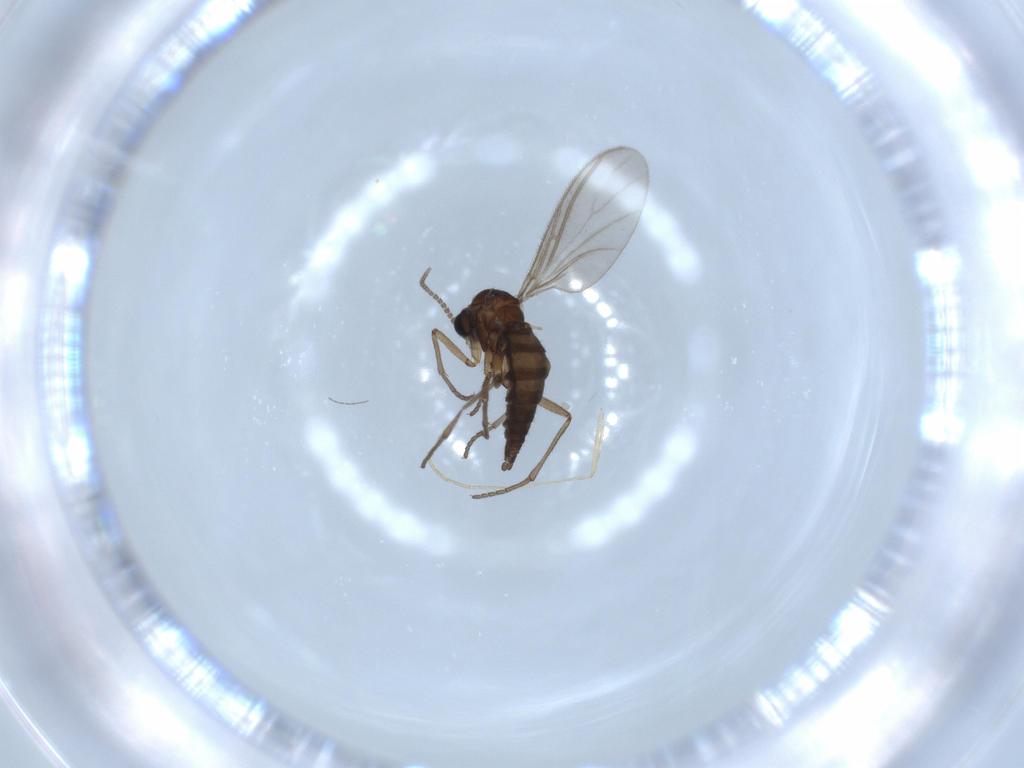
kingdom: Animalia
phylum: Arthropoda
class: Insecta
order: Diptera
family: Sciaridae
